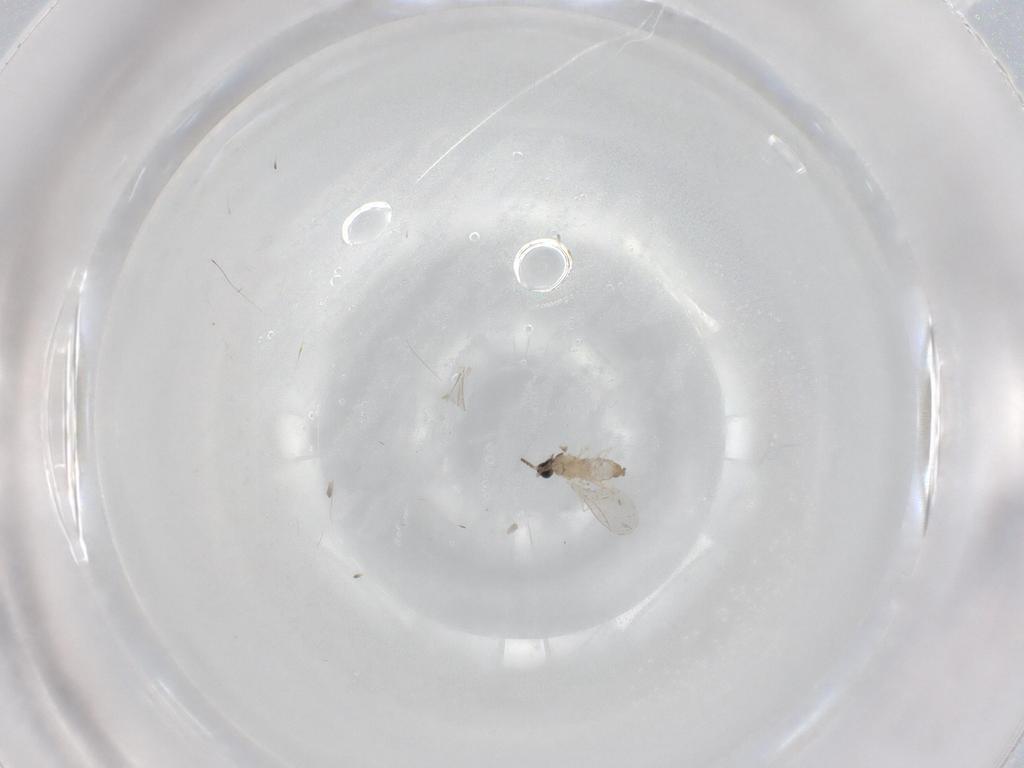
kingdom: Animalia
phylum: Arthropoda
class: Insecta
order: Diptera
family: Cecidomyiidae
